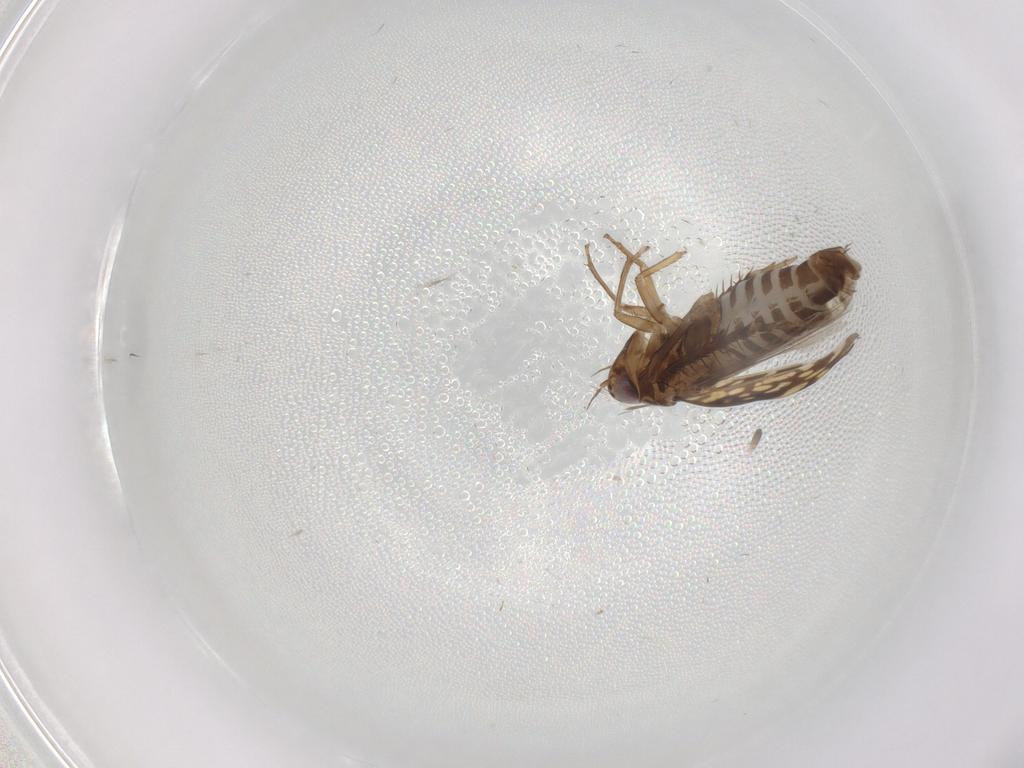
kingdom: Animalia
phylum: Arthropoda
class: Insecta
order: Hemiptera
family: Cicadellidae
